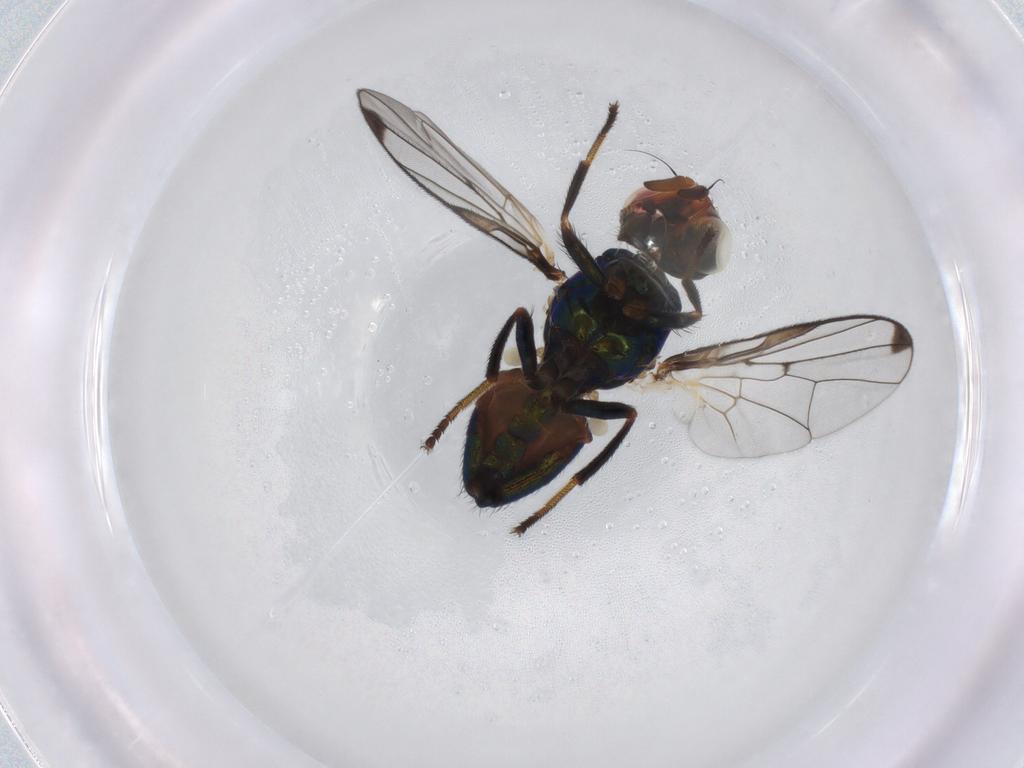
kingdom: Animalia
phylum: Arthropoda
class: Insecta
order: Diptera
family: Platystomatidae
